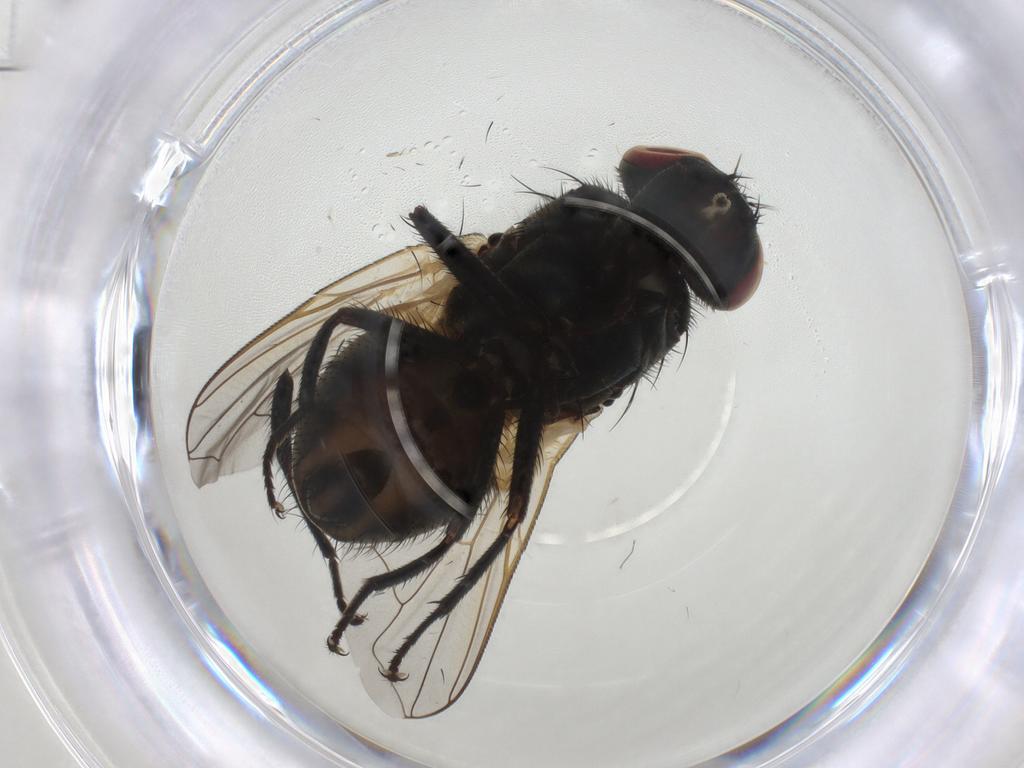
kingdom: Animalia
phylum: Arthropoda
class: Insecta
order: Diptera
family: Muscidae
